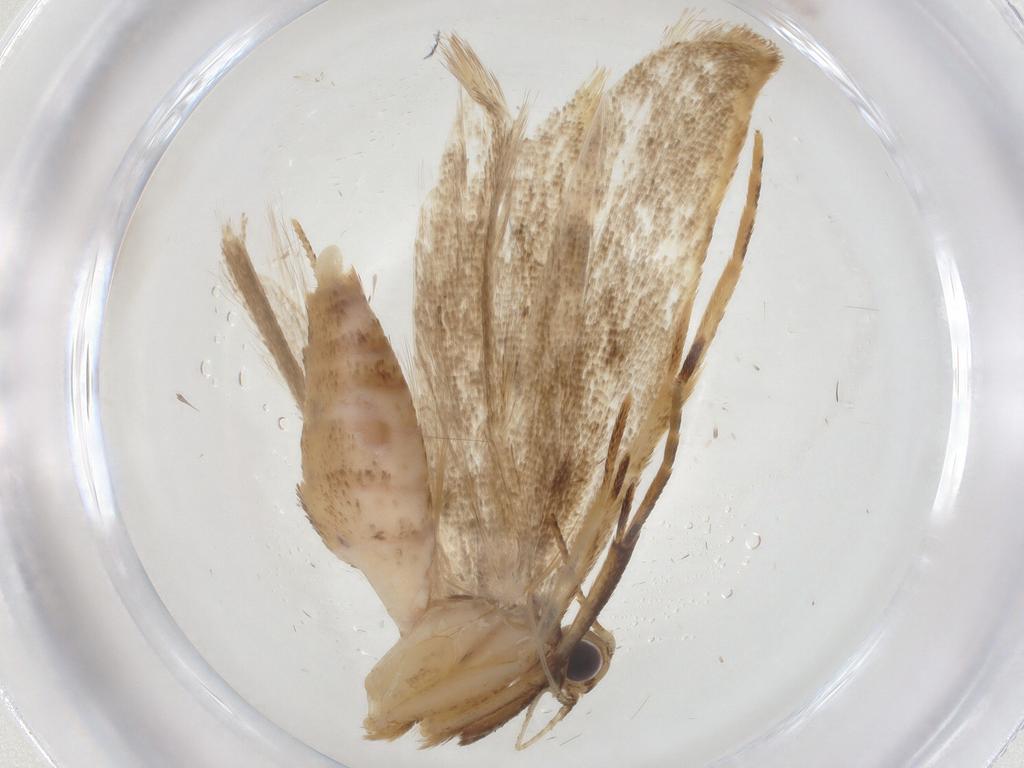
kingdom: Animalia
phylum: Arthropoda
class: Insecta
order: Lepidoptera
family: Gelechiidae
